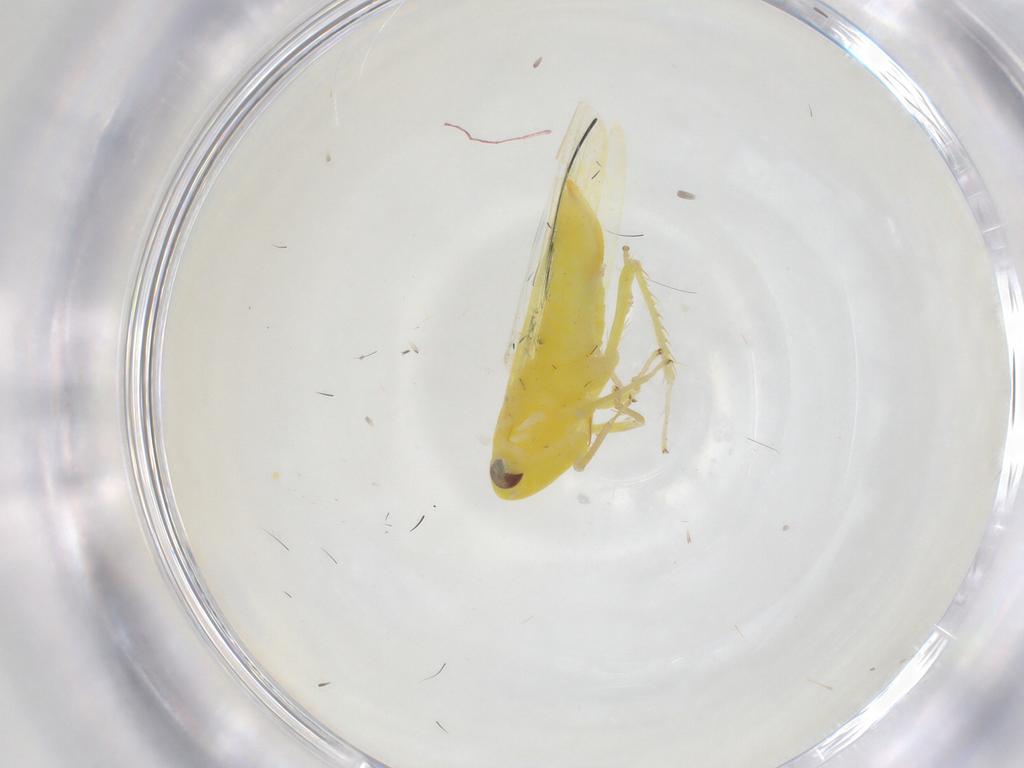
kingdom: Animalia
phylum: Arthropoda
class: Insecta
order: Hemiptera
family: Cicadellidae
